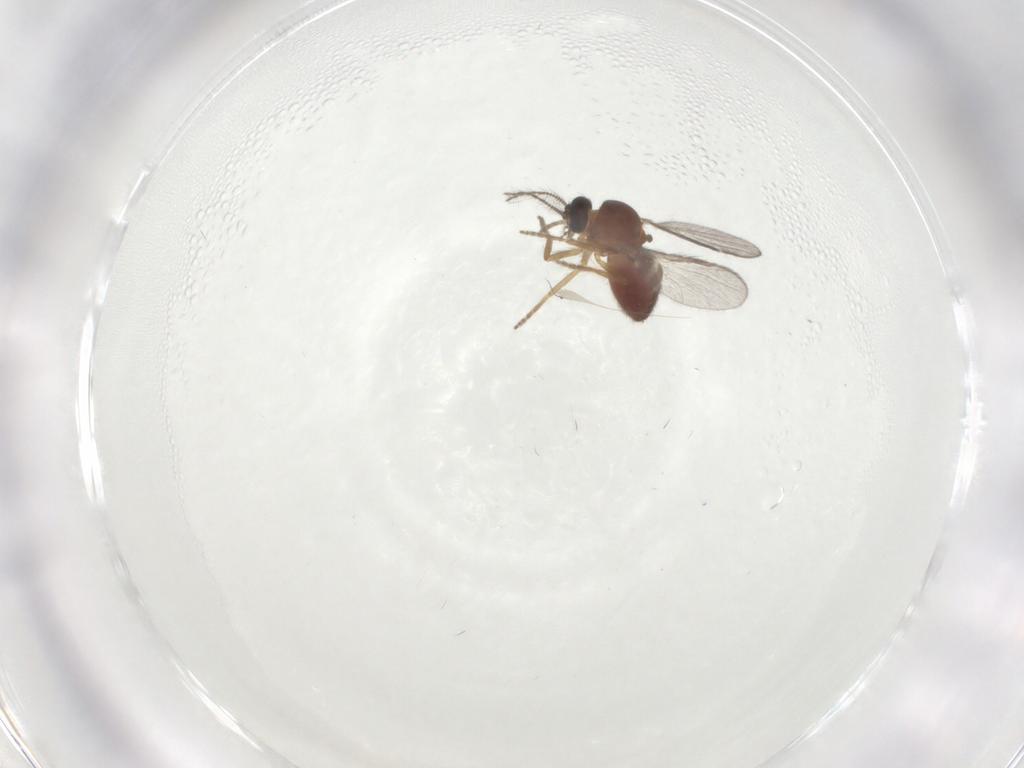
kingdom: Animalia
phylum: Arthropoda
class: Insecta
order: Diptera
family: Ceratopogonidae
